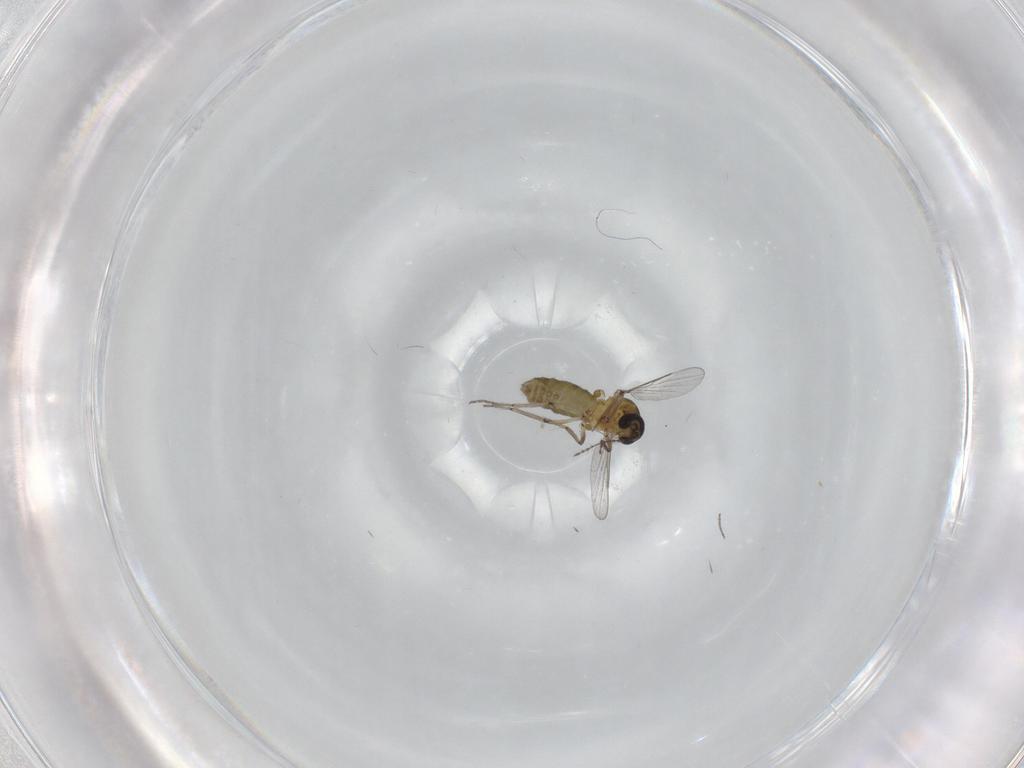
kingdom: Animalia
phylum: Arthropoda
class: Insecta
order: Diptera
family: Ceratopogonidae
